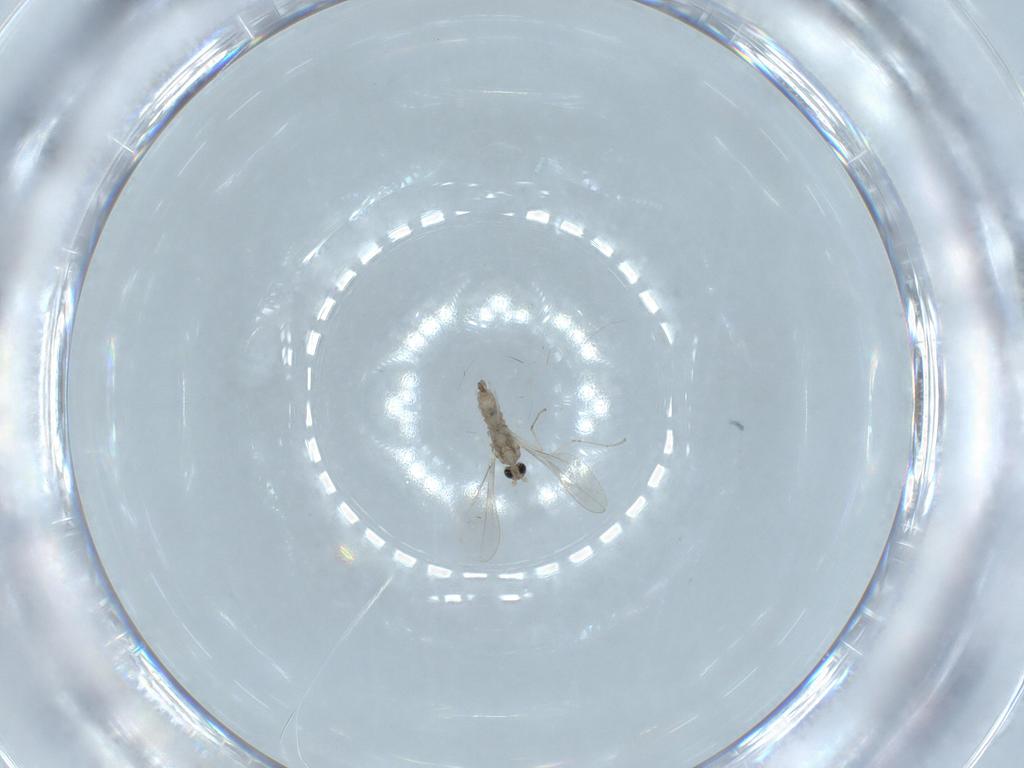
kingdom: Animalia
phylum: Arthropoda
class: Insecta
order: Diptera
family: Cecidomyiidae
